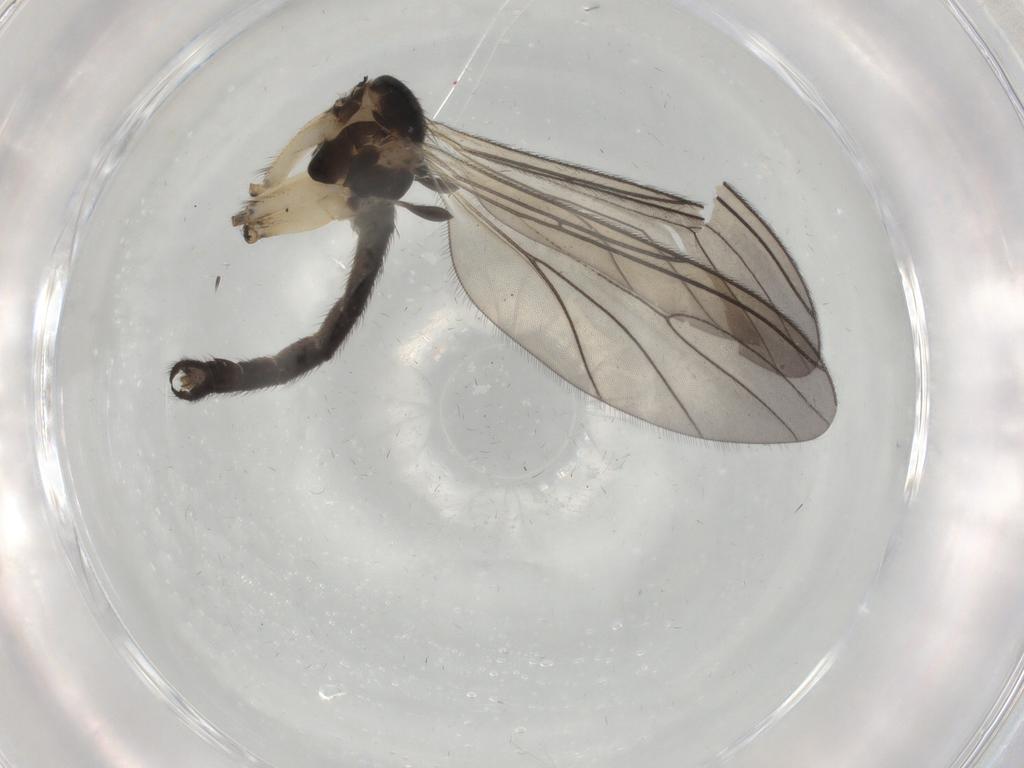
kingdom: Animalia
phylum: Arthropoda
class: Insecta
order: Diptera
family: Sciaridae
